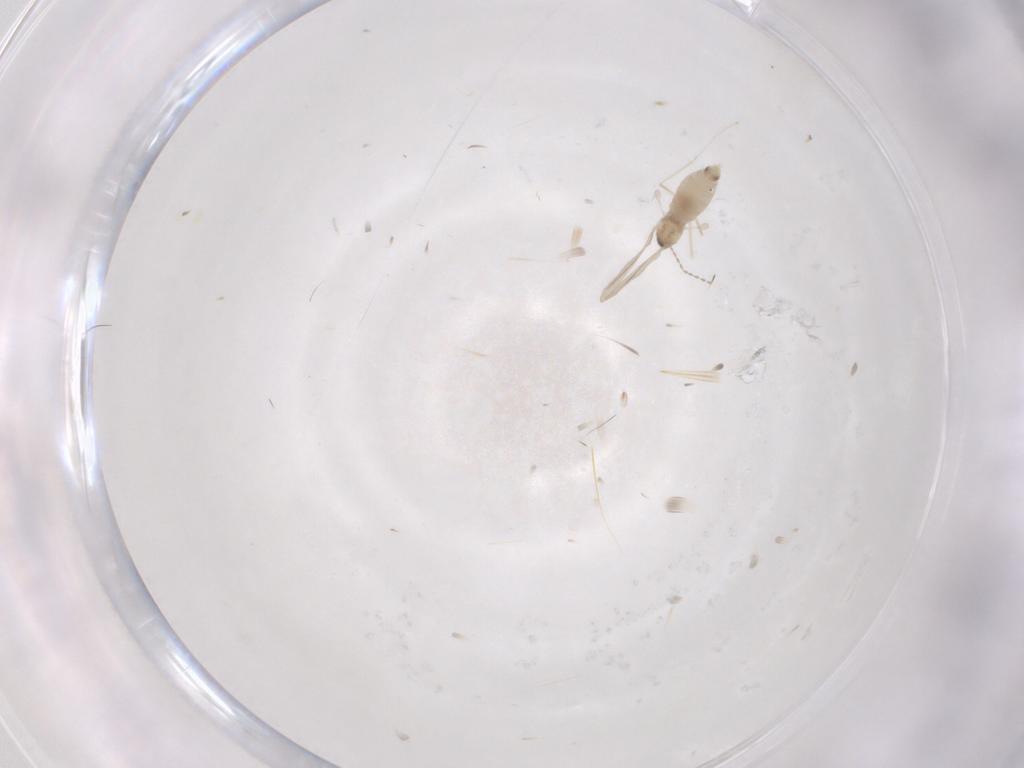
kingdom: Animalia
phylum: Arthropoda
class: Insecta
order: Diptera
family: Cecidomyiidae
